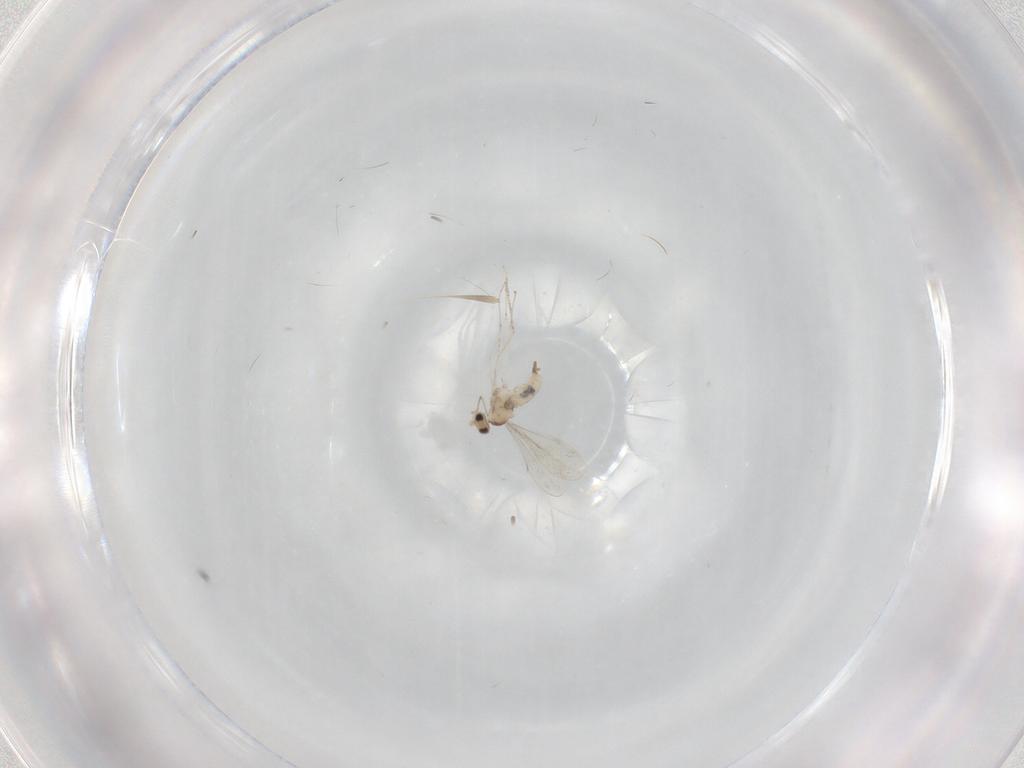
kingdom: Animalia
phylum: Arthropoda
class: Insecta
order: Diptera
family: Cecidomyiidae
